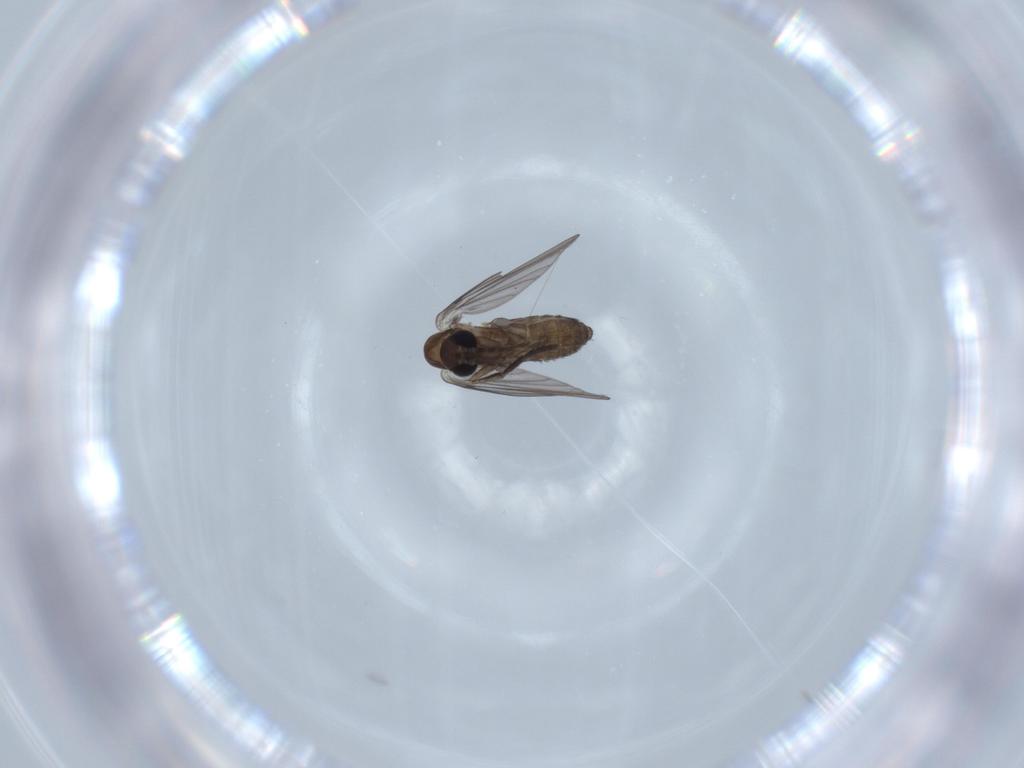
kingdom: Animalia
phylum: Arthropoda
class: Insecta
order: Diptera
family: Psychodidae
